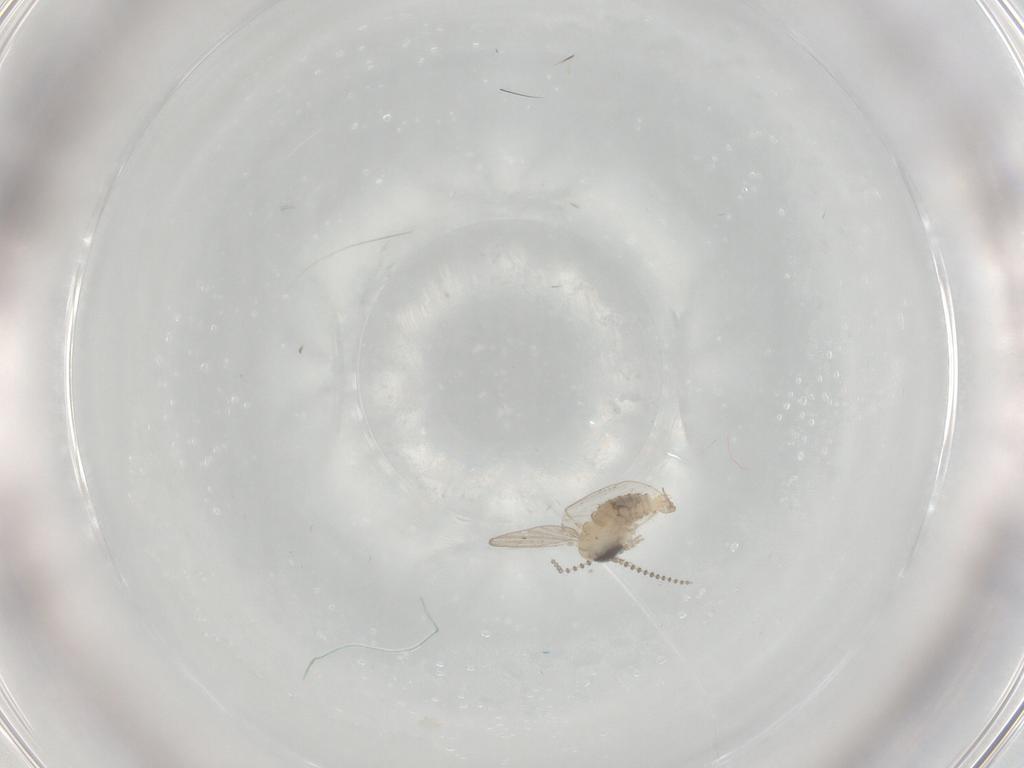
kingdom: Animalia
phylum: Arthropoda
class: Insecta
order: Diptera
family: Psychodidae
